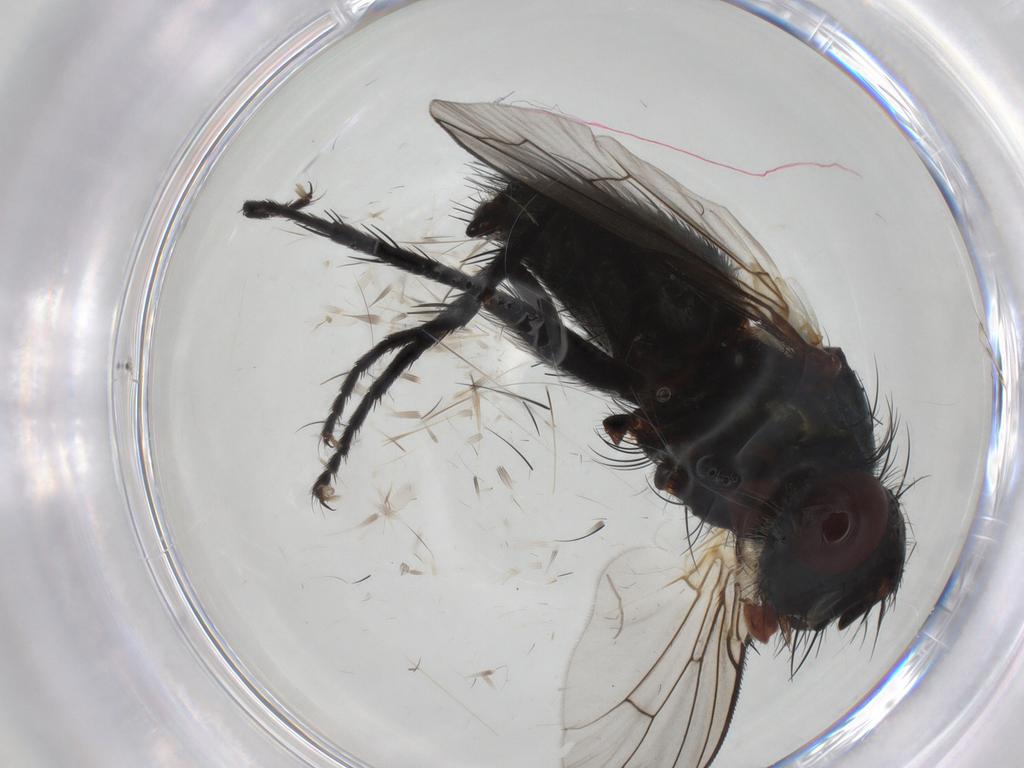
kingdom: Animalia
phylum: Arthropoda
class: Insecta
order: Diptera
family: Tachinidae
